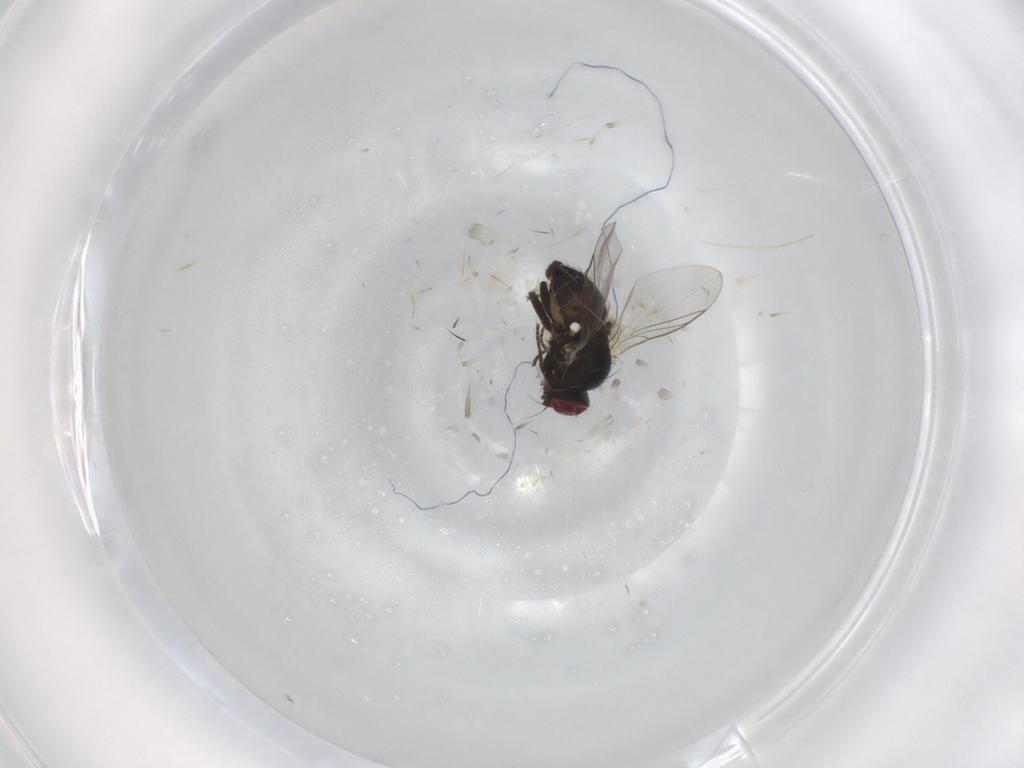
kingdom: Animalia
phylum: Arthropoda
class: Insecta
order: Diptera
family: Agromyzidae
